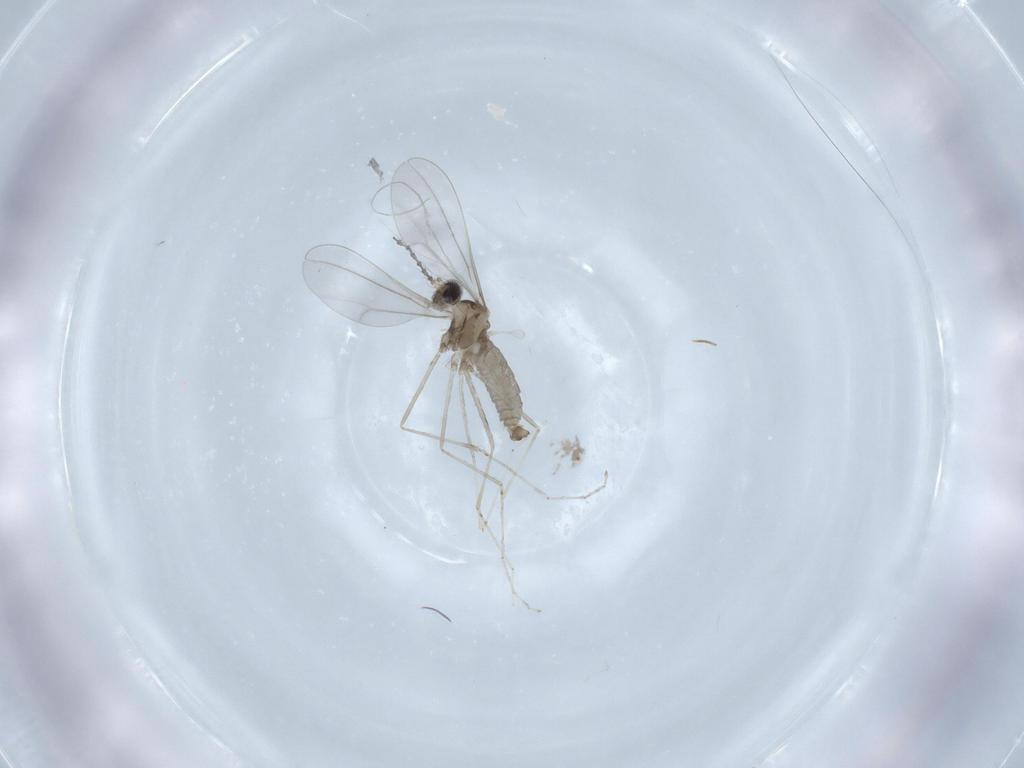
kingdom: Animalia
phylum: Arthropoda
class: Insecta
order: Diptera
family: Cecidomyiidae
